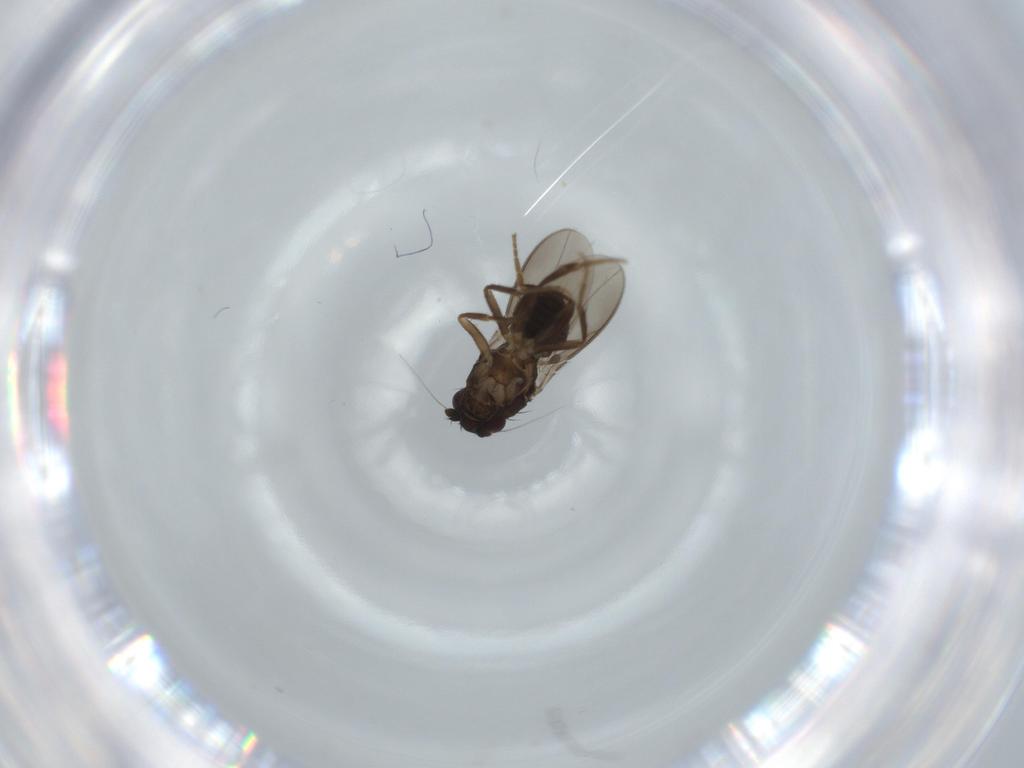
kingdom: Animalia
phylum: Arthropoda
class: Insecta
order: Diptera
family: Sphaeroceridae
